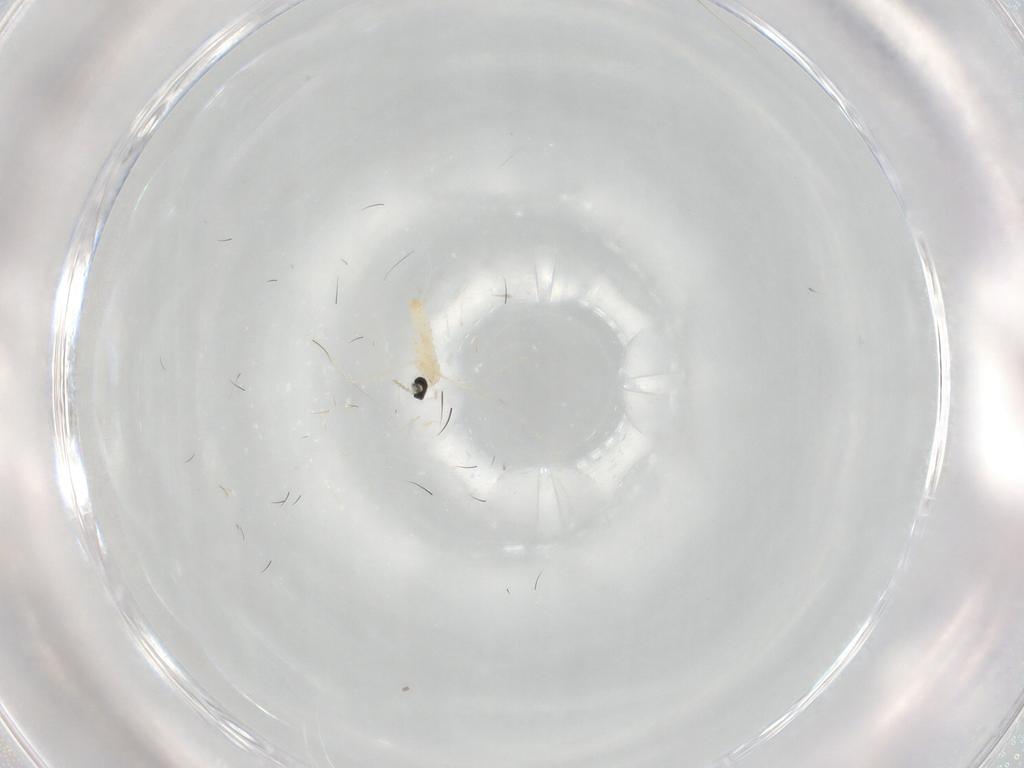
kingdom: Animalia
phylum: Arthropoda
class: Insecta
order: Diptera
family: Cecidomyiidae
